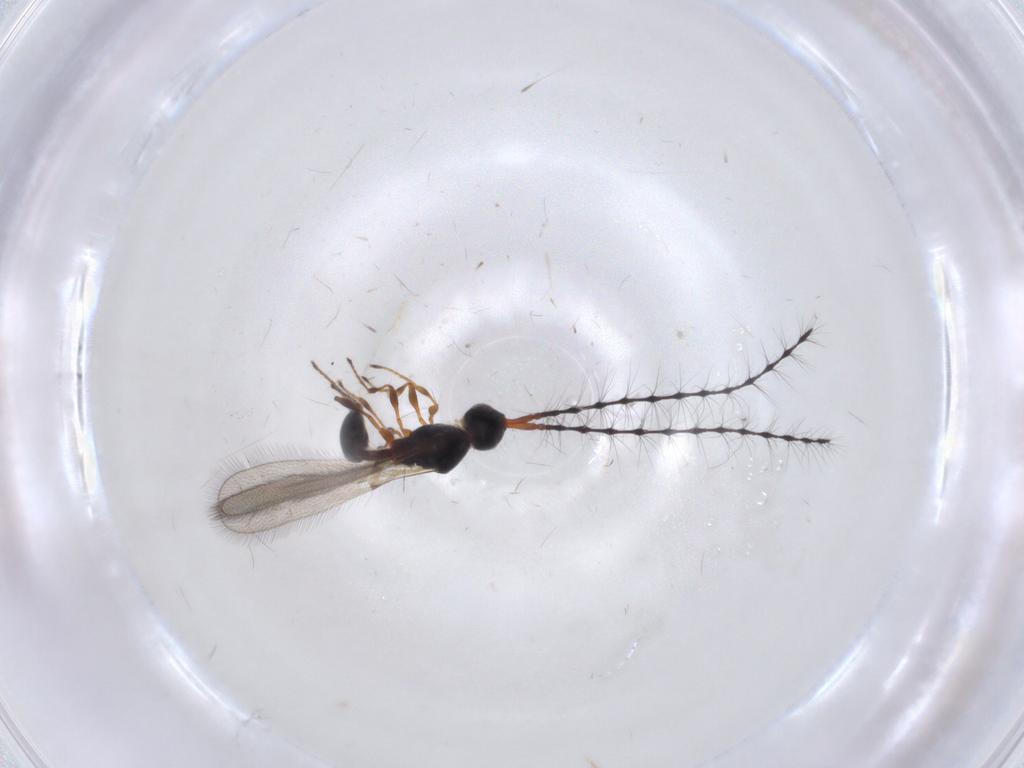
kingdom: Animalia
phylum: Arthropoda
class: Insecta
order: Hymenoptera
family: Diapriidae
